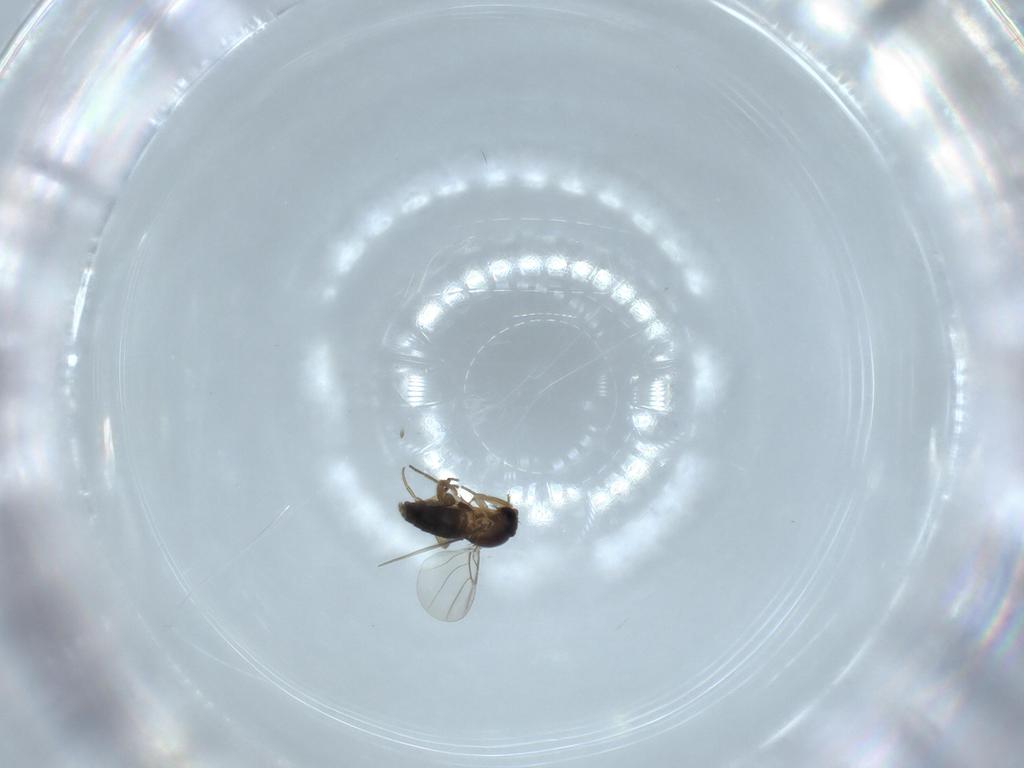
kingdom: Animalia
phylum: Arthropoda
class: Insecta
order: Diptera
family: Phoridae
